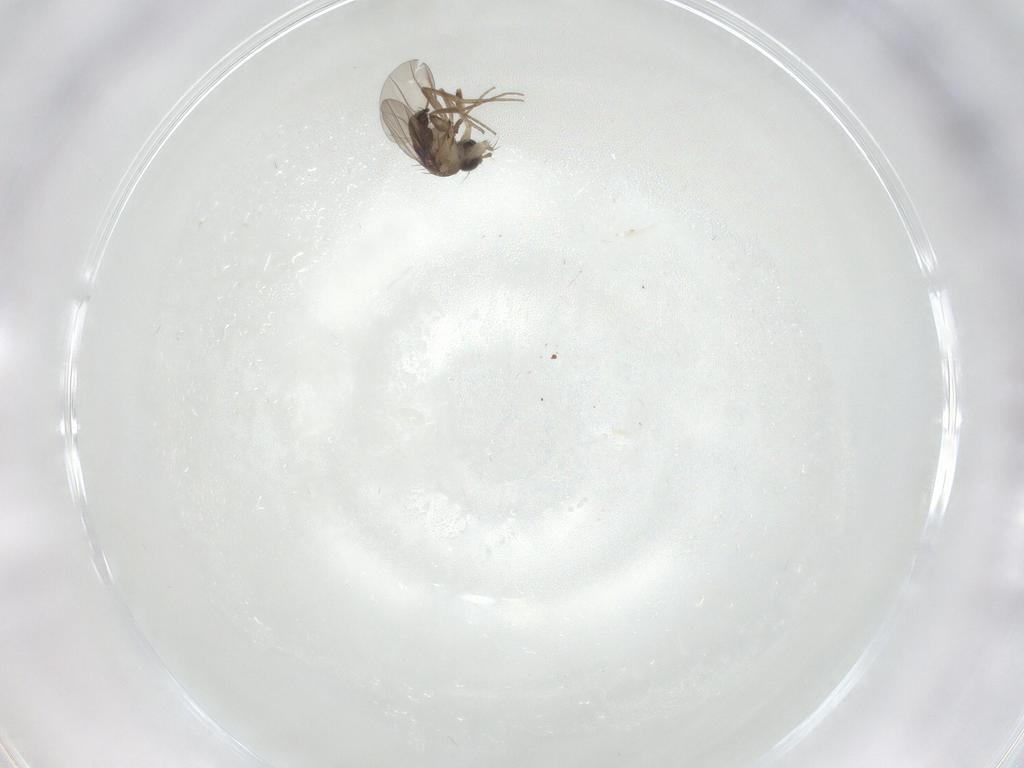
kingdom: Animalia
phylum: Arthropoda
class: Insecta
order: Diptera
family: Phoridae
